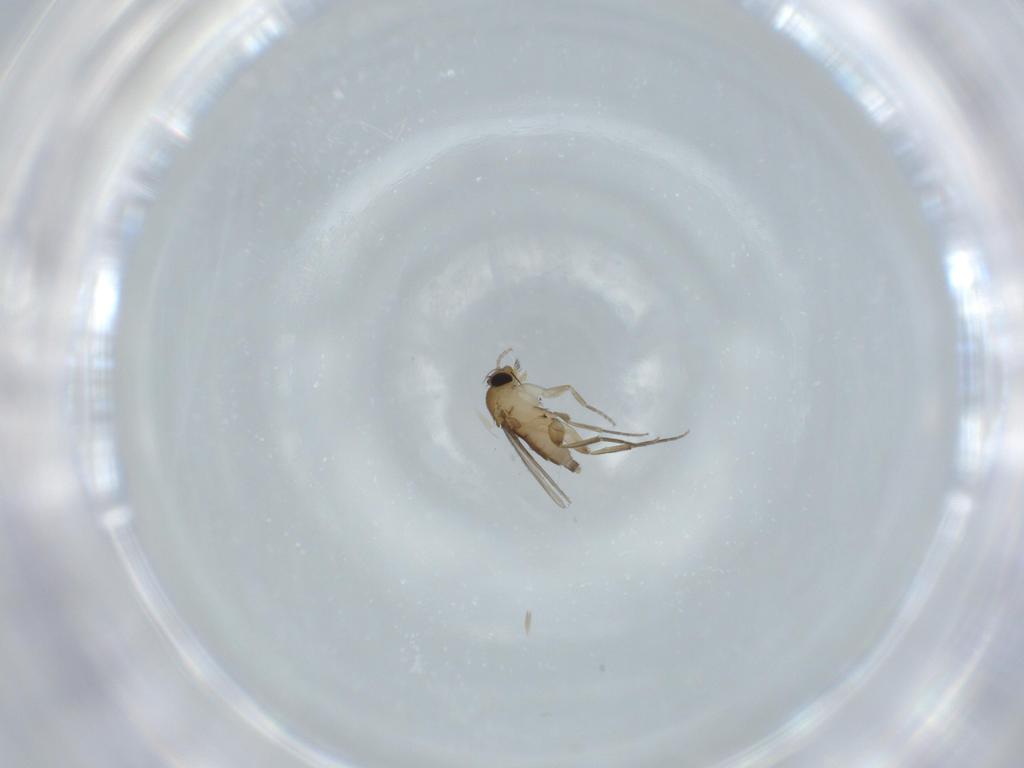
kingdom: Animalia
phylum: Arthropoda
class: Insecta
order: Diptera
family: Phoridae
